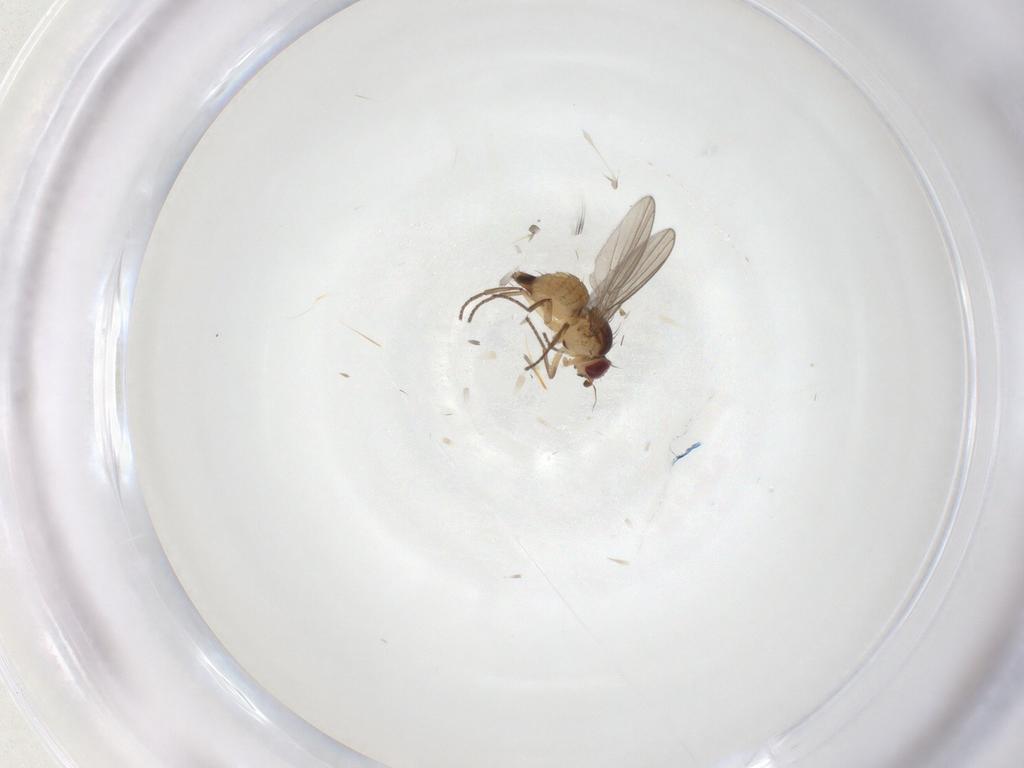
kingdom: Animalia
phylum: Arthropoda
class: Insecta
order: Diptera
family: Agromyzidae
